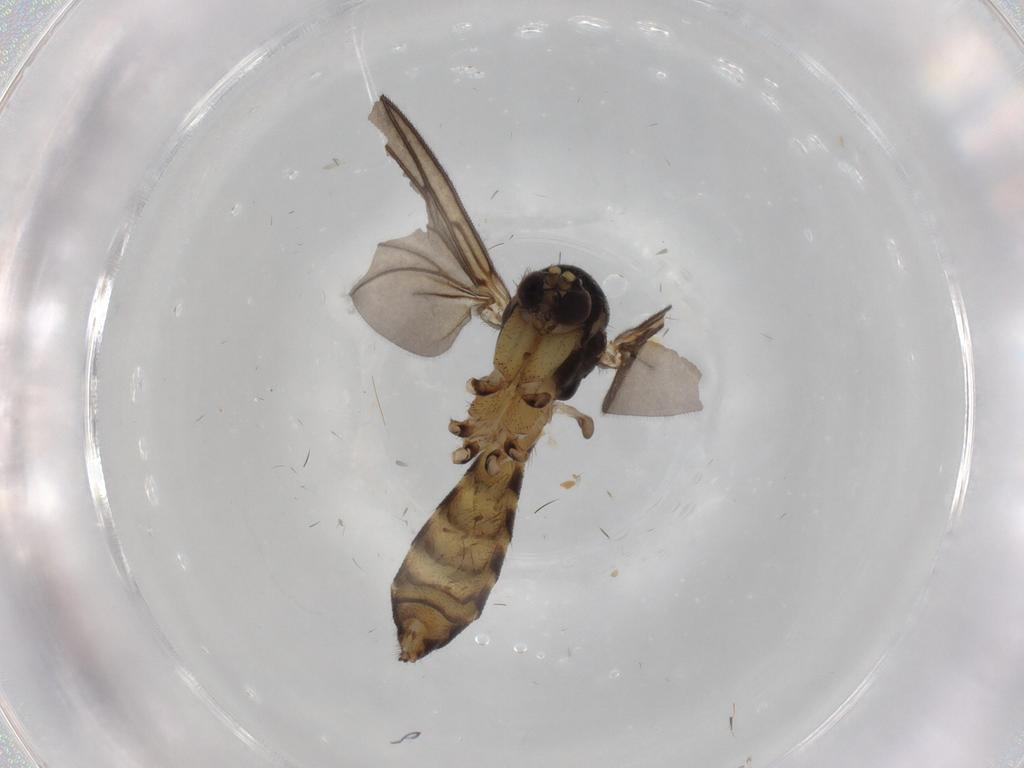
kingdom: Animalia
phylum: Arthropoda
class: Insecta
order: Diptera
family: Mycetophilidae
